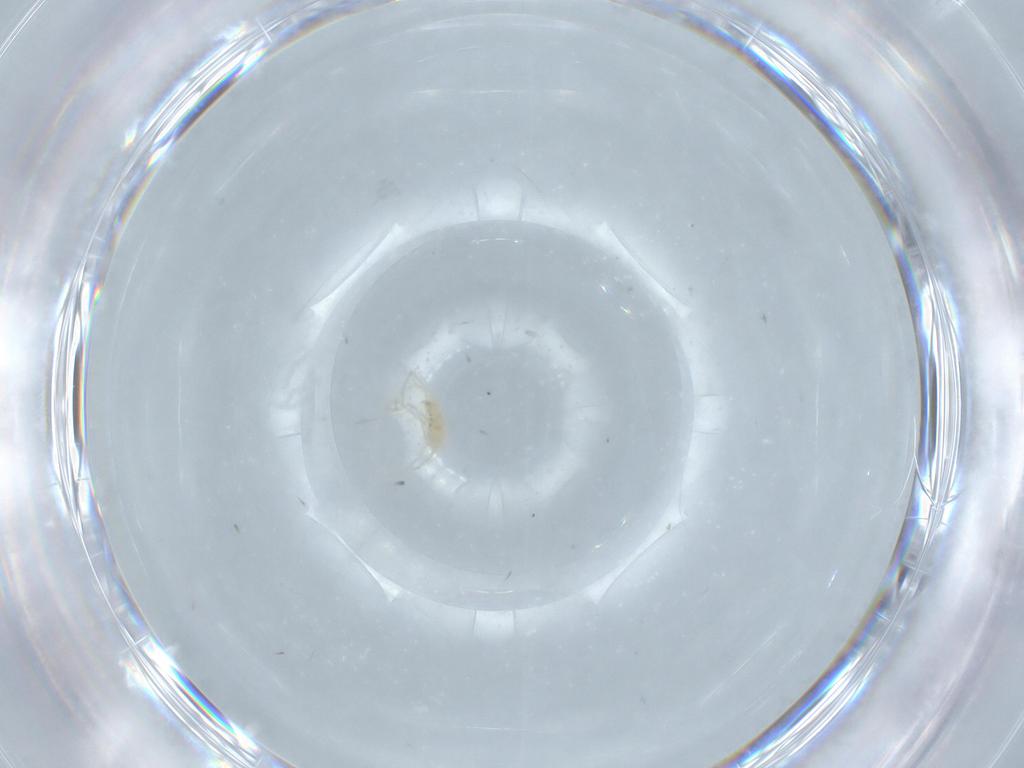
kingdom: Animalia
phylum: Arthropoda
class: Arachnida
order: Trombidiformes
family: Erythraeidae
